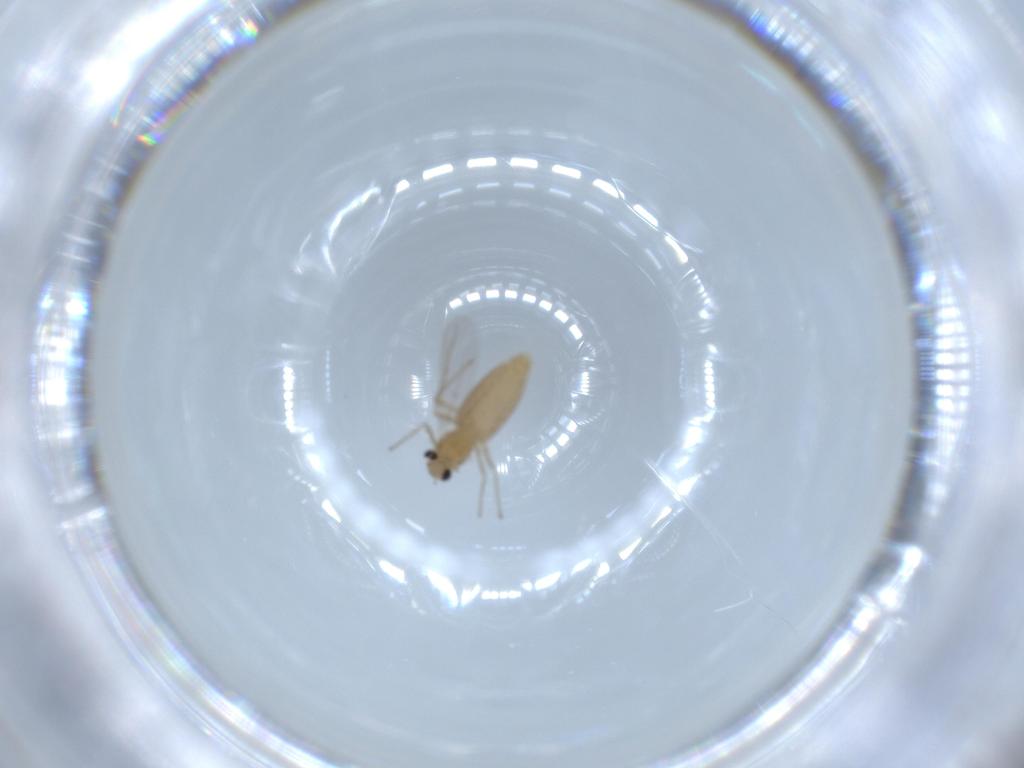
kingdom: Animalia
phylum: Arthropoda
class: Insecta
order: Diptera
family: Chironomidae
